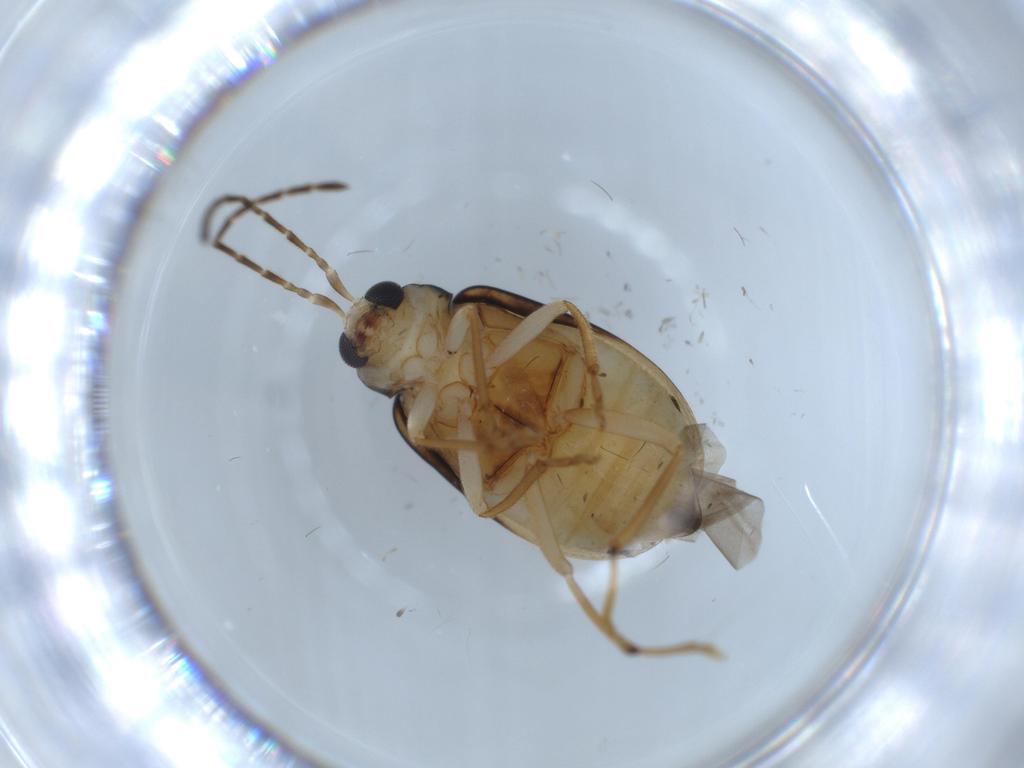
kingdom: Animalia
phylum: Arthropoda
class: Insecta
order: Coleoptera
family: Chrysomelidae
